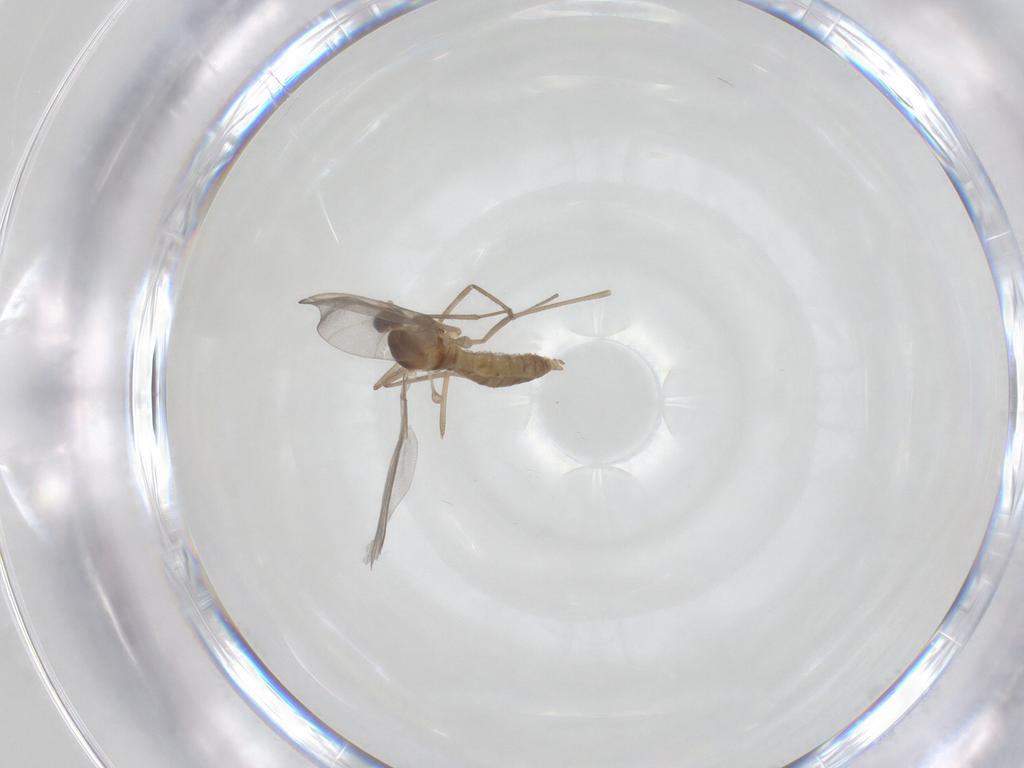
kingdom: Animalia
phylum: Arthropoda
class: Insecta
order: Diptera
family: Cecidomyiidae
